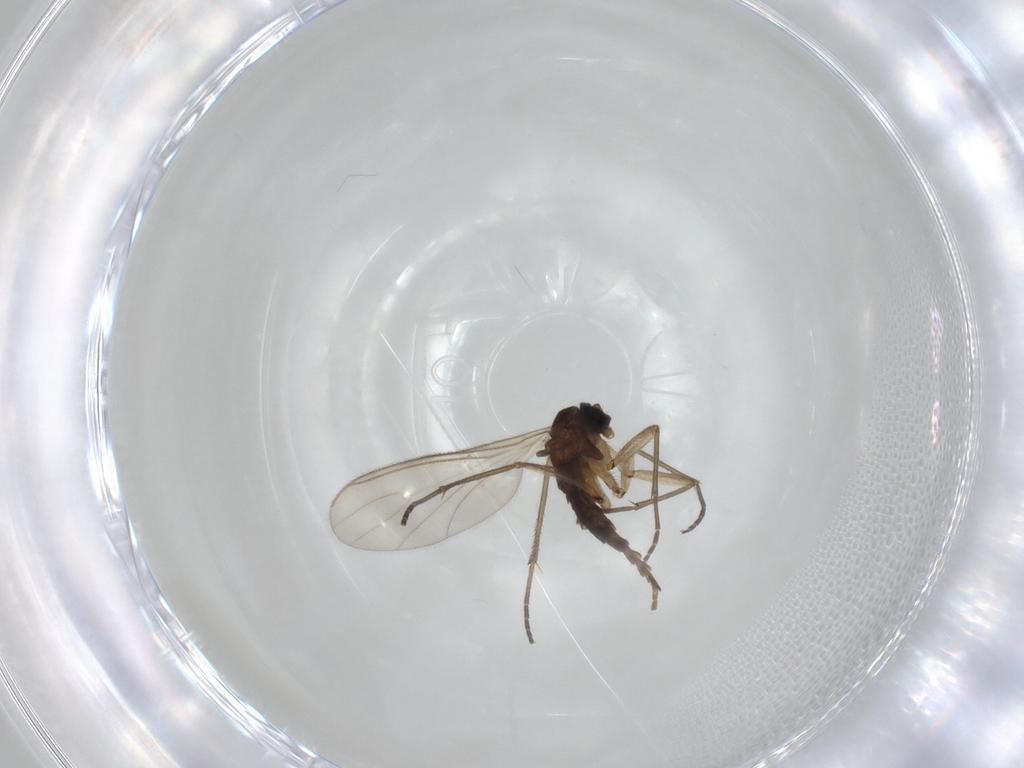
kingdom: Animalia
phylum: Arthropoda
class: Insecta
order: Diptera
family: Sciaridae
